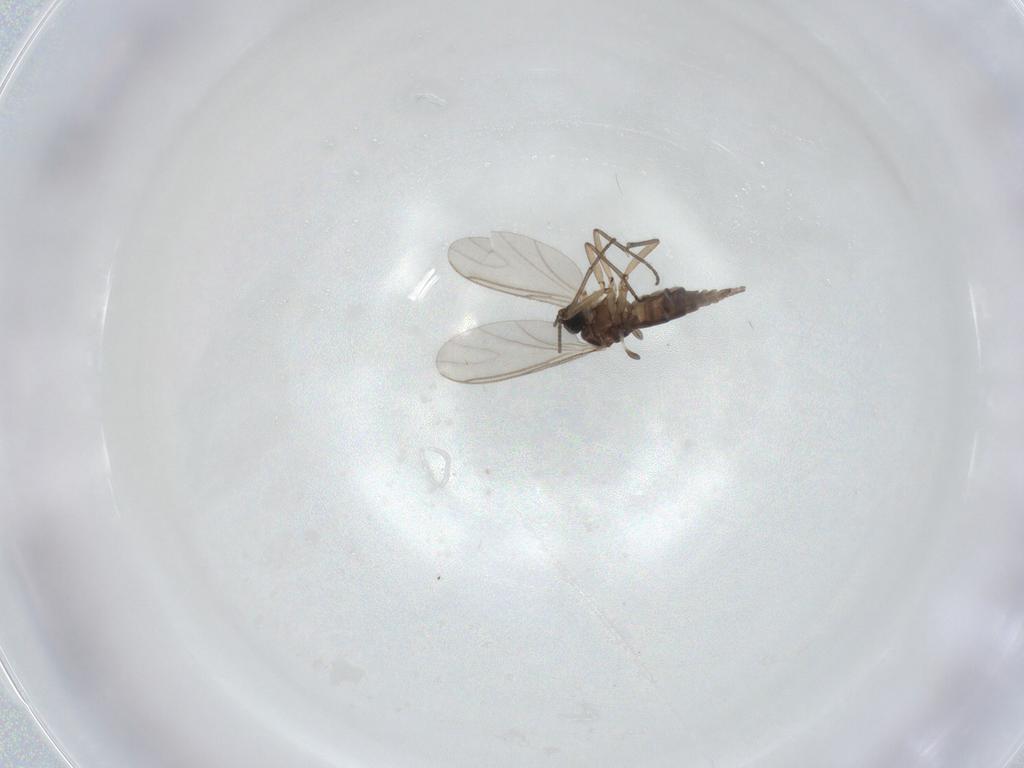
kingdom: Animalia
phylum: Arthropoda
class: Insecta
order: Diptera
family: Sciaridae
